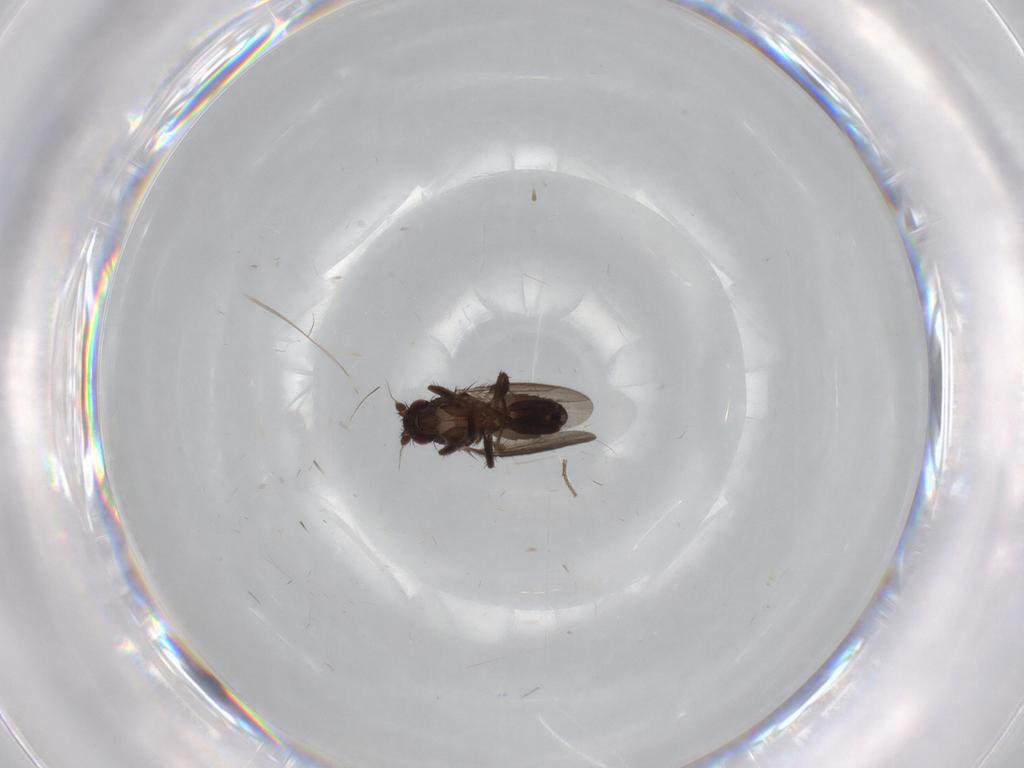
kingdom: Animalia
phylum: Arthropoda
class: Insecta
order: Diptera
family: Sphaeroceridae
